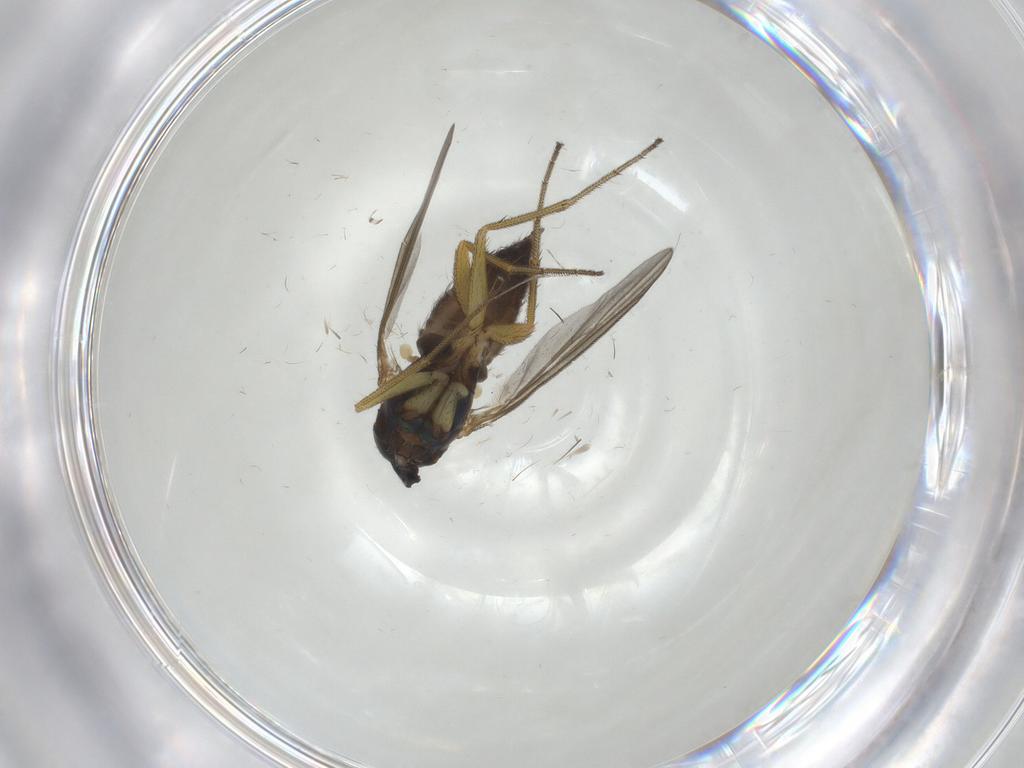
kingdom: Animalia
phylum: Arthropoda
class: Insecta
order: Diptera
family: Dolichopodidae
